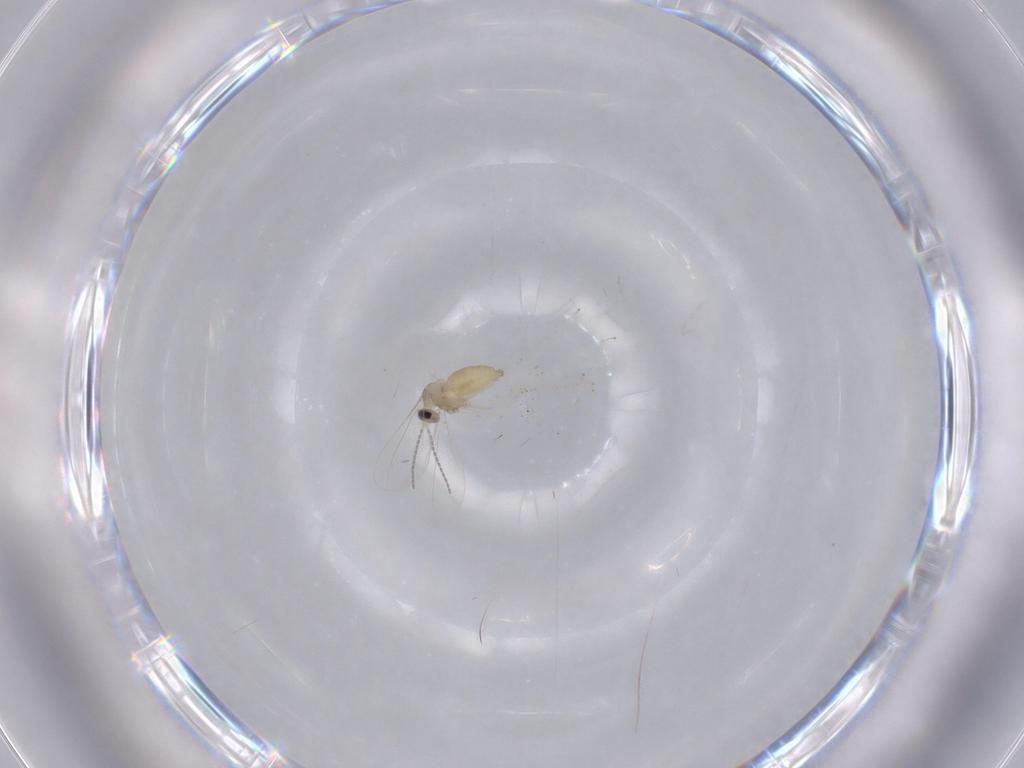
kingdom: Animalia
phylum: Arthropoda
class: Insecta
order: Diptera
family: Cecidomyiidae
